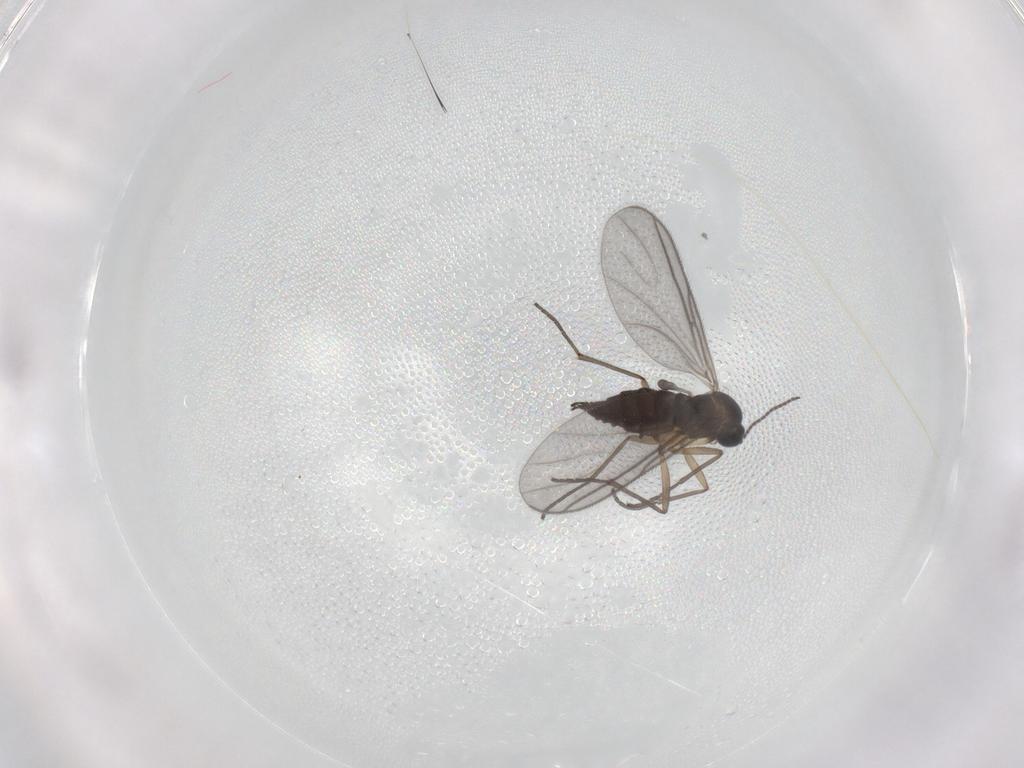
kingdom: Animalia
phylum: Arthropoda
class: Insecta
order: Diptera
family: Sciaridae
